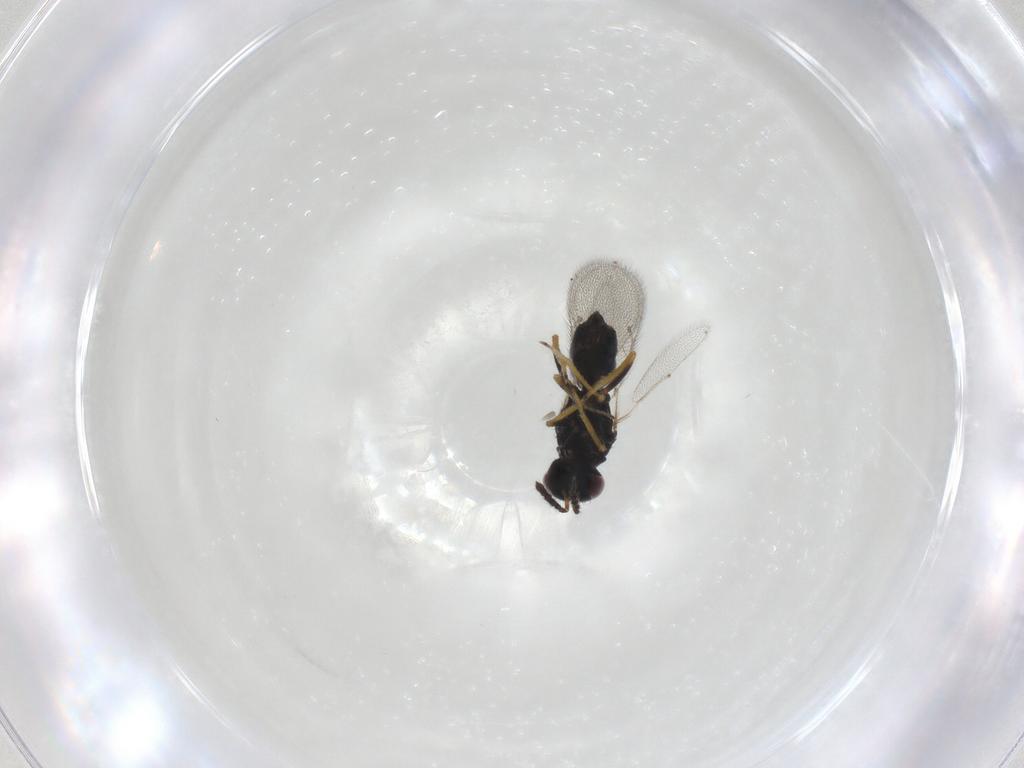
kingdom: Animalia
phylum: Arthropoda
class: Insecta
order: Hymenoptera
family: Eulophidae
